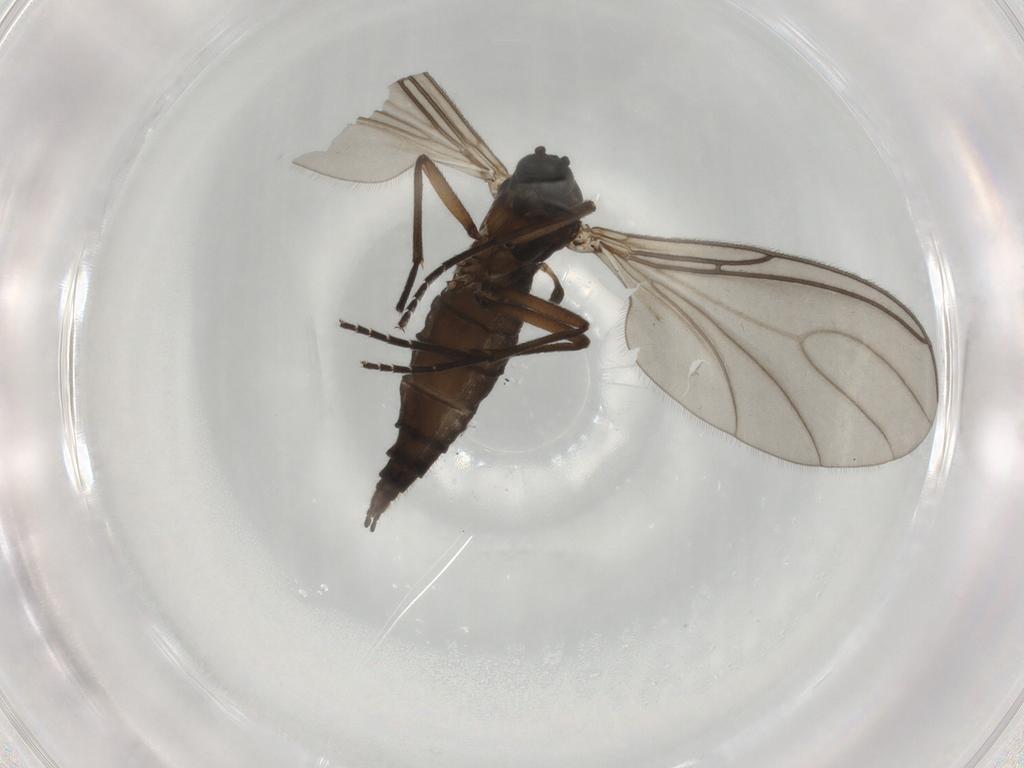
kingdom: Animalia
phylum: Arthropoda
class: Insecta
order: Diptera
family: Sciaridae
